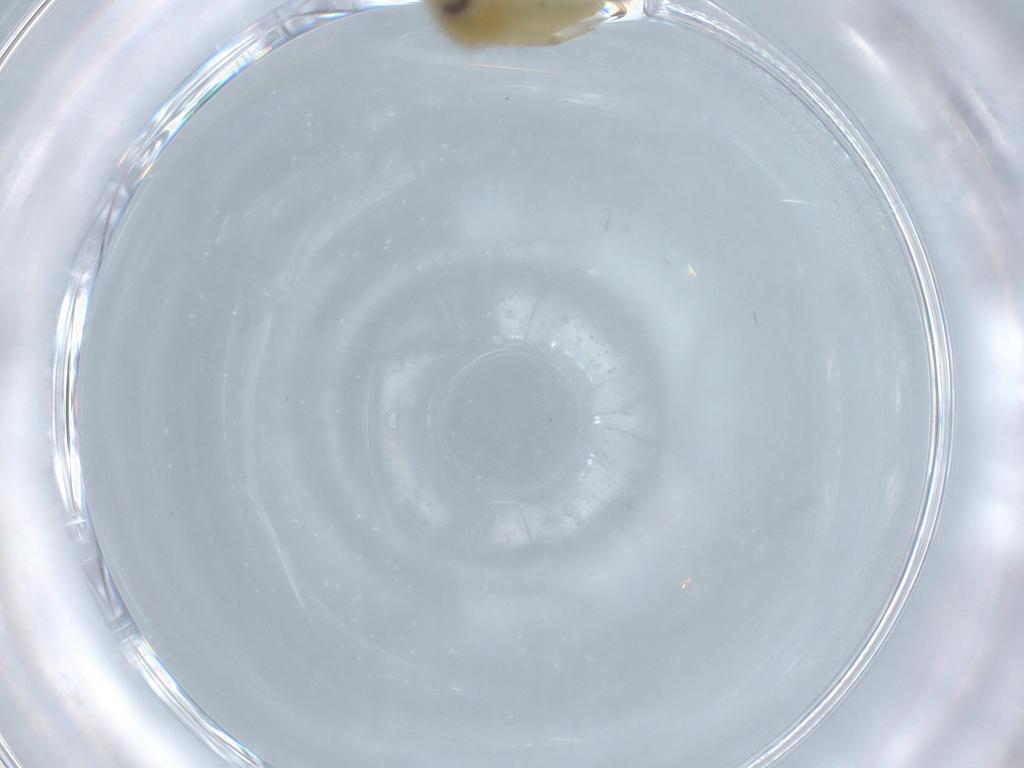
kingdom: Animalia
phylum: Arthropoda
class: Insecta
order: Hemiptera
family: Miridae
